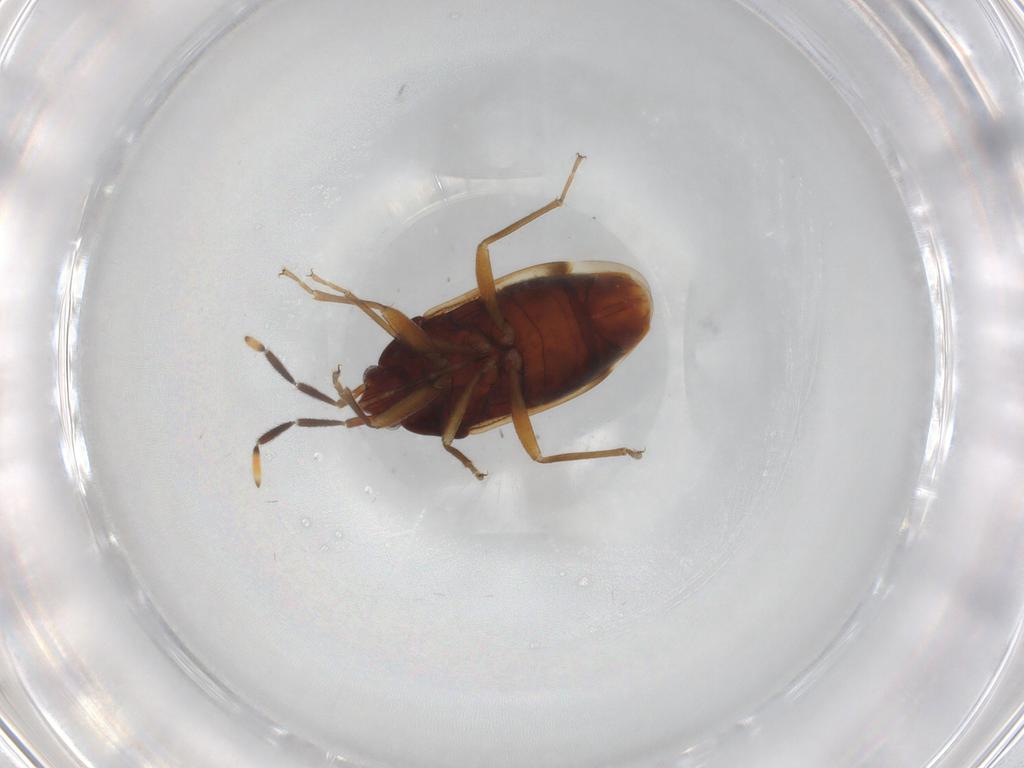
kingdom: Animalia
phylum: Arthropoda
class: Insecta
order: Hemiptera
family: Rhyparochromidae
